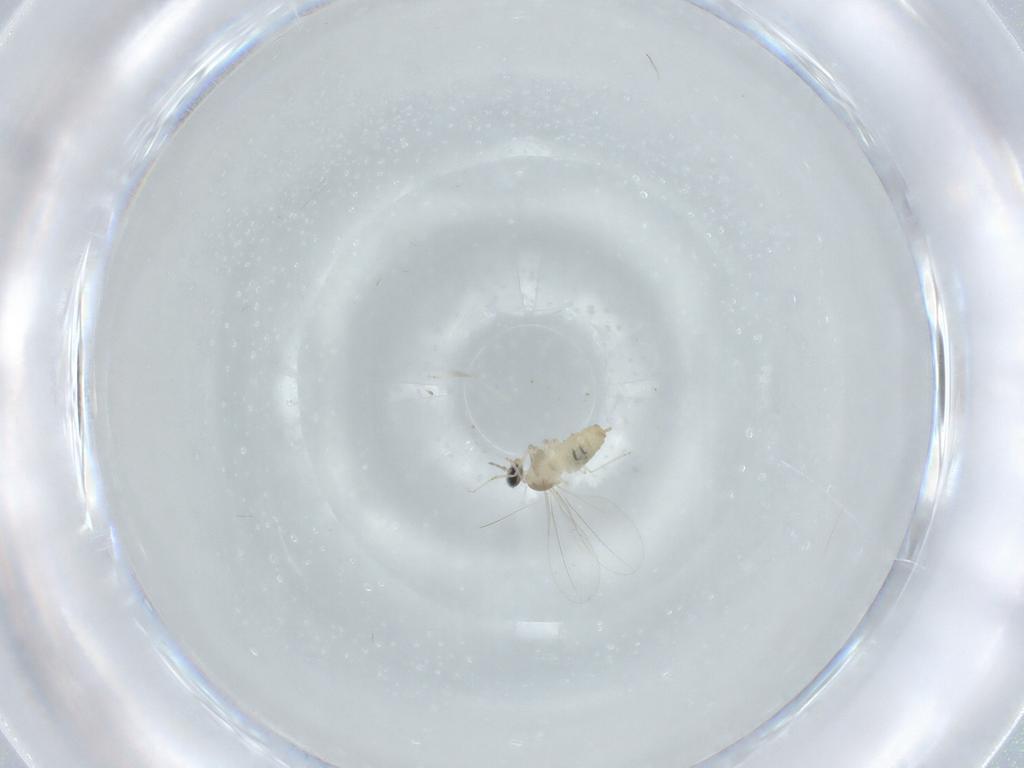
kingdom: Animalia
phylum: Arthropoda
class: Insecta
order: Diptera
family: Cecidomyiidae
